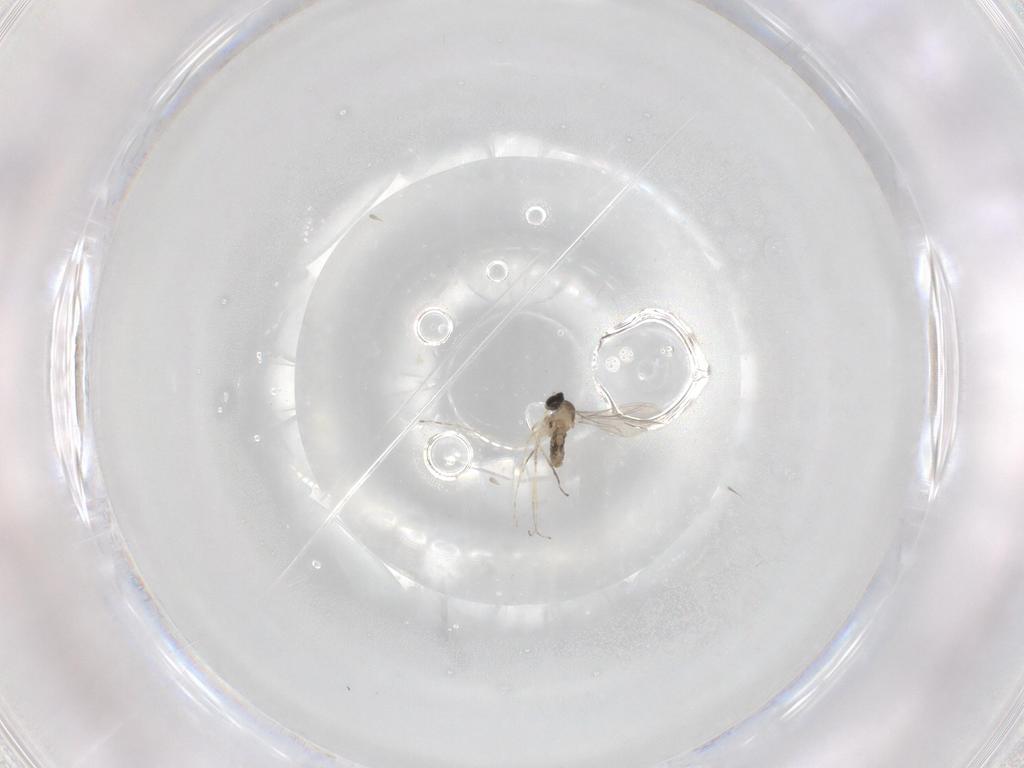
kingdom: Animalia
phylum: Arthropoda
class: Insecta
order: Diptera
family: Cecidomyiidae
